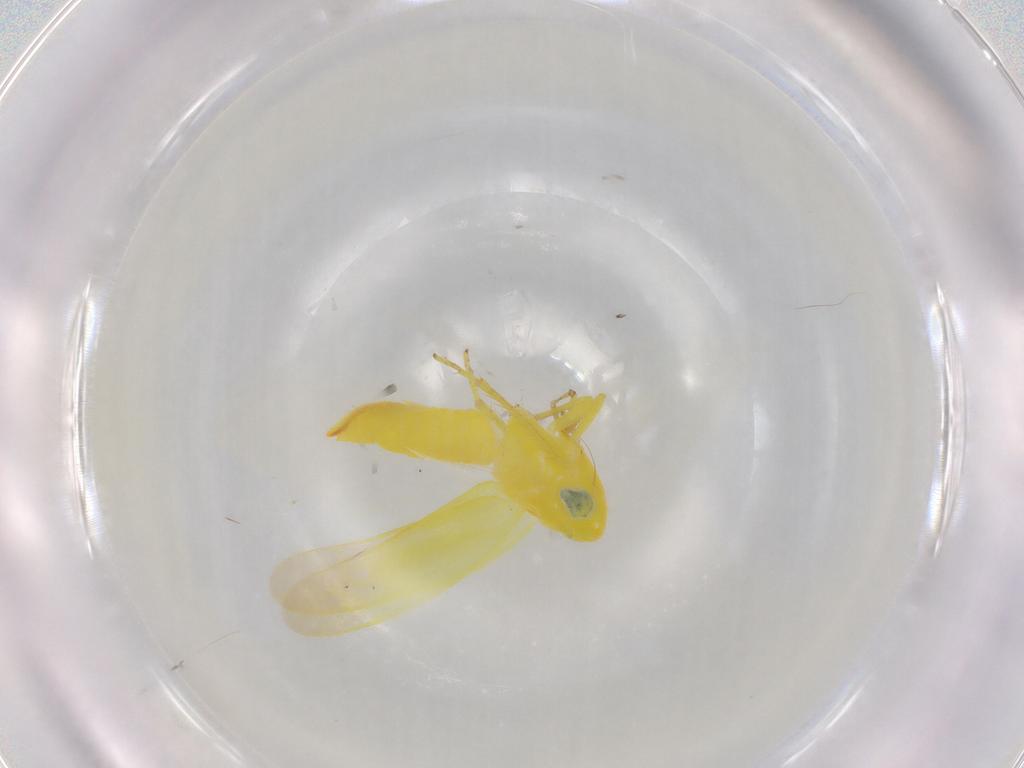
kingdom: Animalia
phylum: Arthropoda
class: Insecta
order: Hemiptera
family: Cicadellidae
